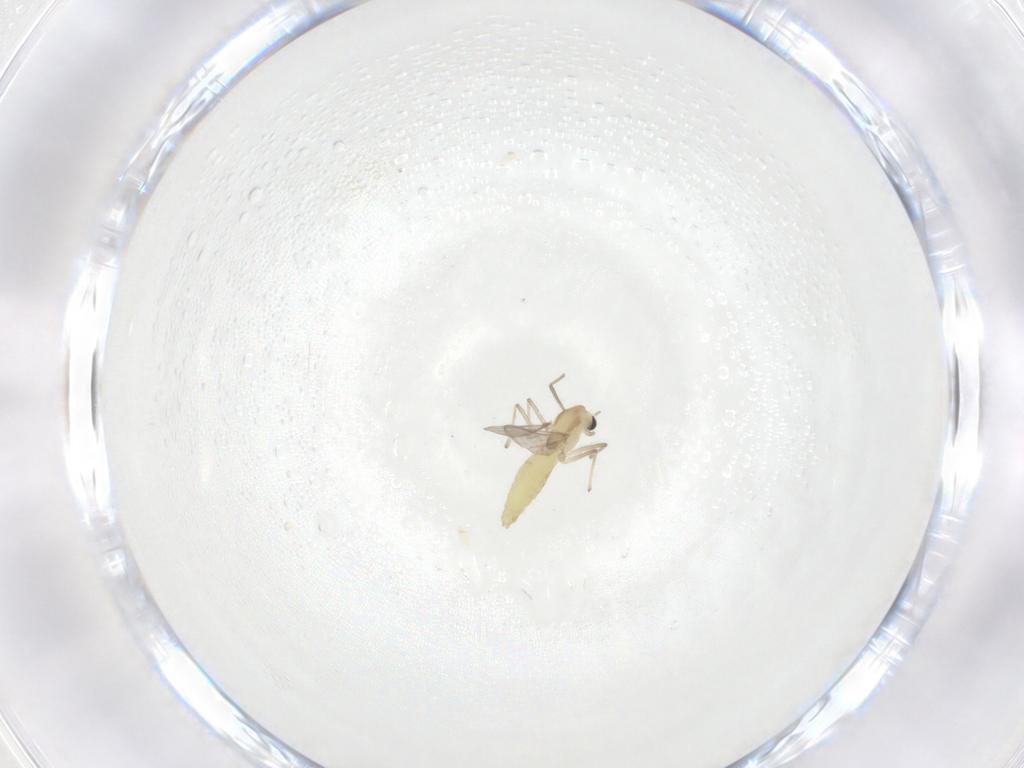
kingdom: Animalia
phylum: Arthropoda
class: Insecta
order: Diptera
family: Chironomidae
